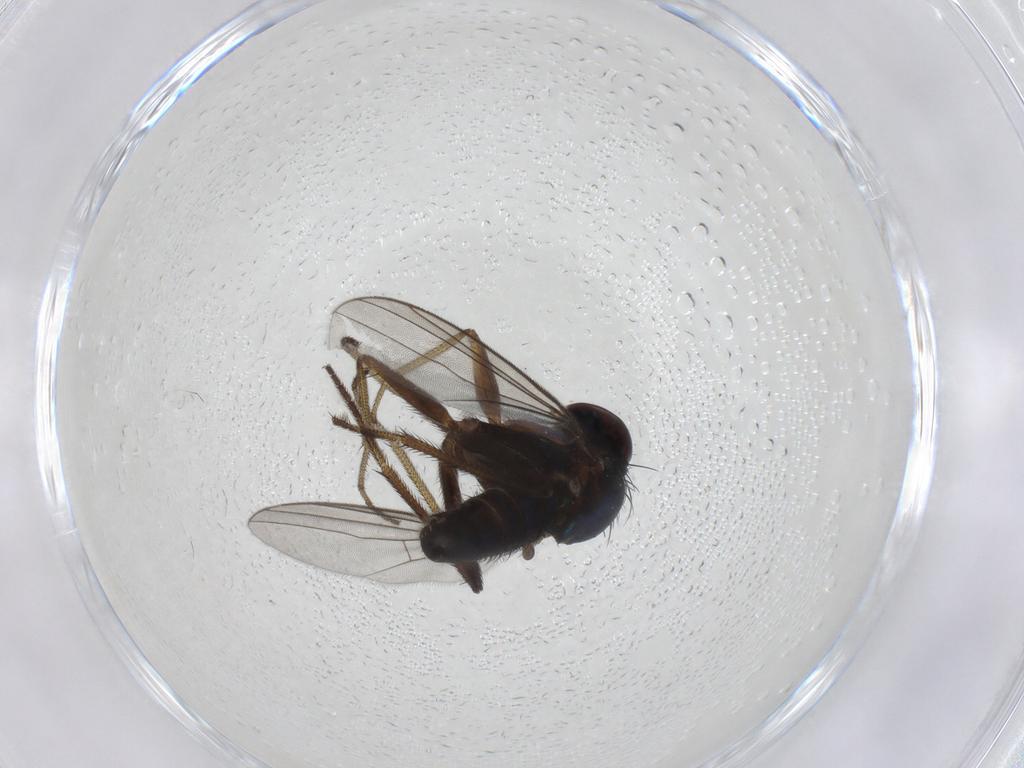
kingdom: Animalia
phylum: Arthropoda
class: Insecta
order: Diptera
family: Dolichopodidae
